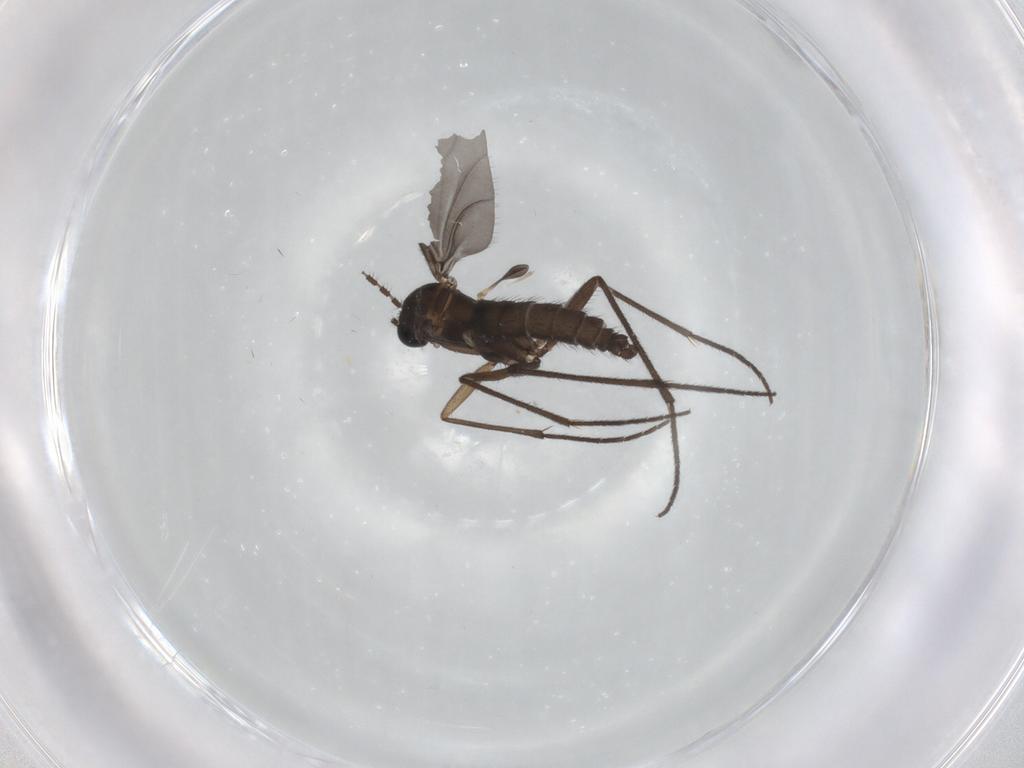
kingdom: Animalia
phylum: Arthropoda
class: Insecta
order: Diptera
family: Sciaridae
